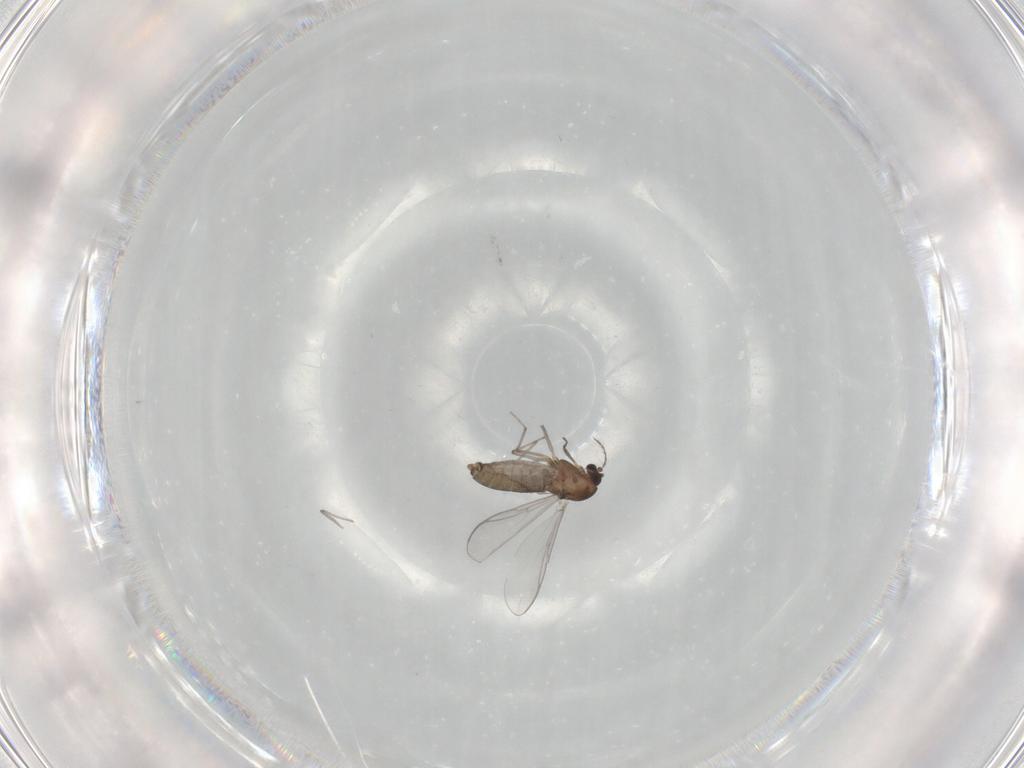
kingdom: Animalia
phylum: Arthropoda
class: Insecta
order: Diptera
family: Chironomidae
